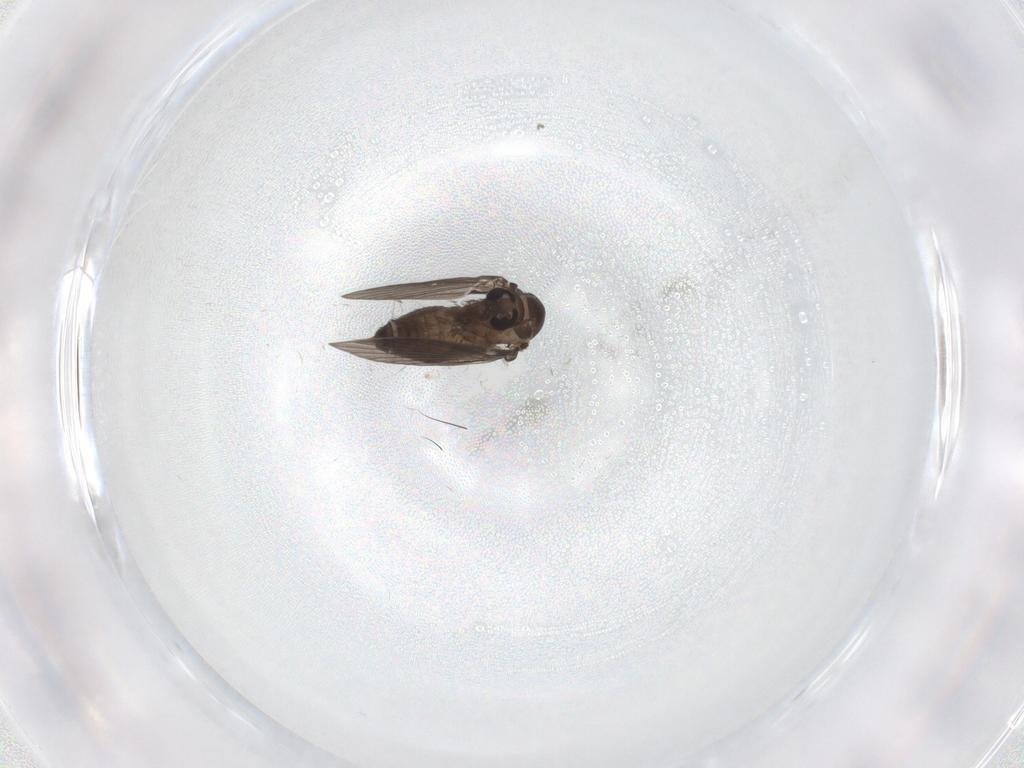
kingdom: Animalia
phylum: Arthropoda
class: Insecta
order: Diptera
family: Psychodidae
